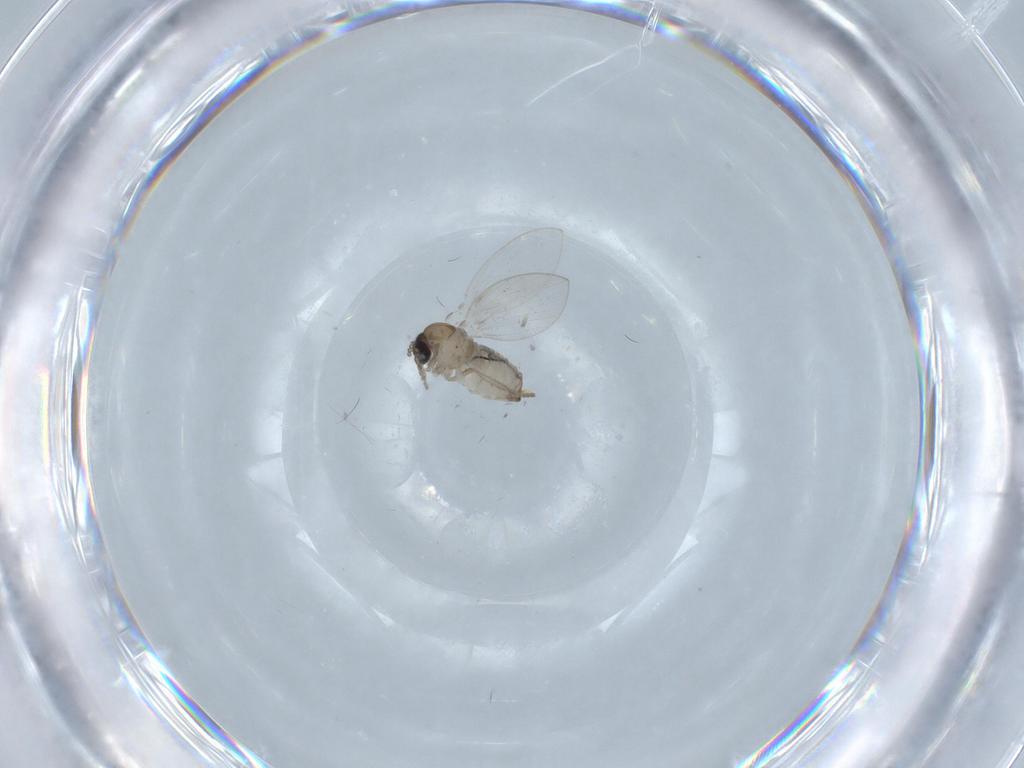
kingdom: Animalia
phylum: Arthropoda
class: Insecta
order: Diptera
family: Psychodidae
